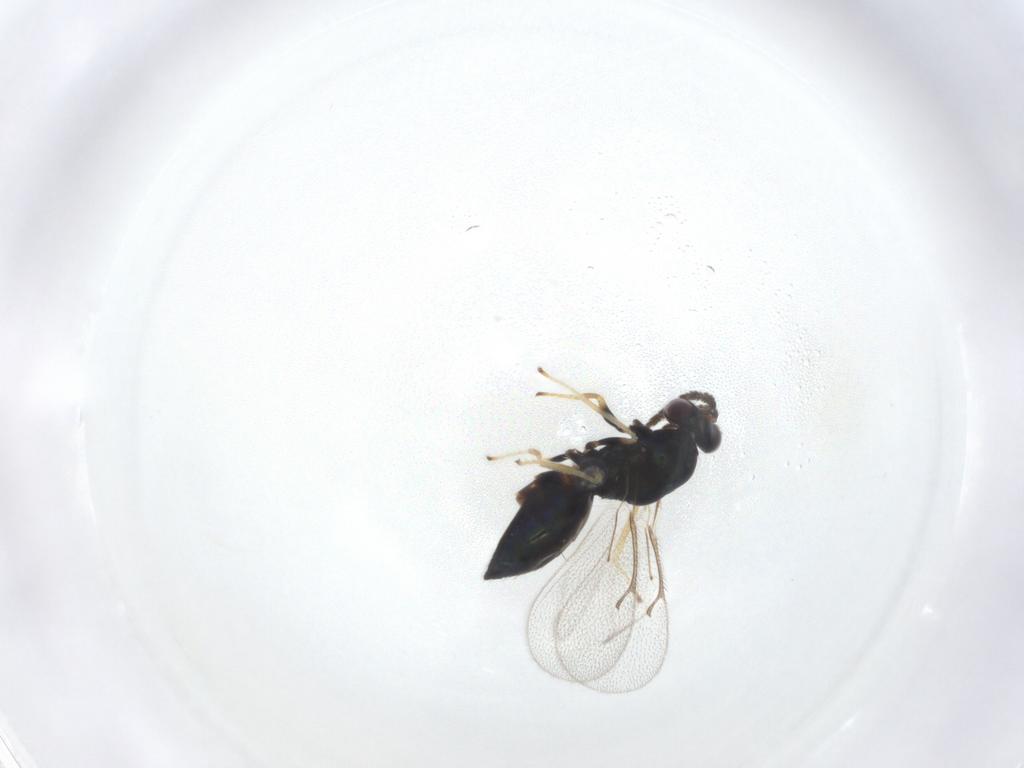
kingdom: Animalia
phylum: Arthropoda
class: Insecta
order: Hymenoptera
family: Eulophidae
